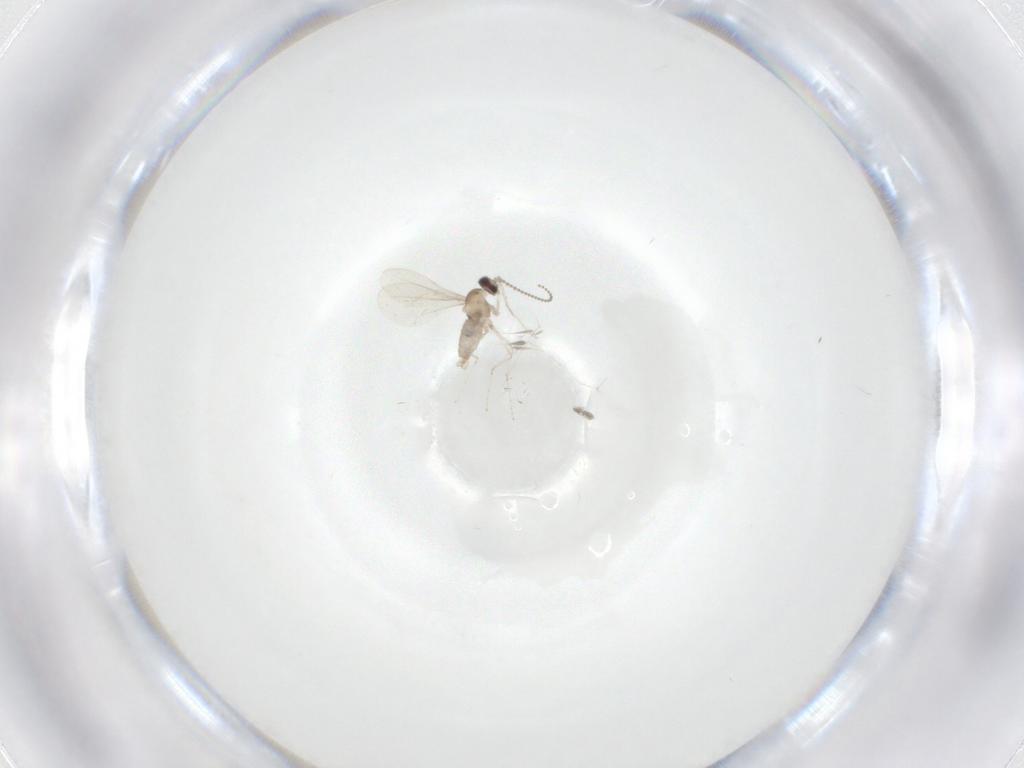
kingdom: Animalia
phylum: Arthropoda
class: Insecta
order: Diptera
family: Cecidomyiidae
